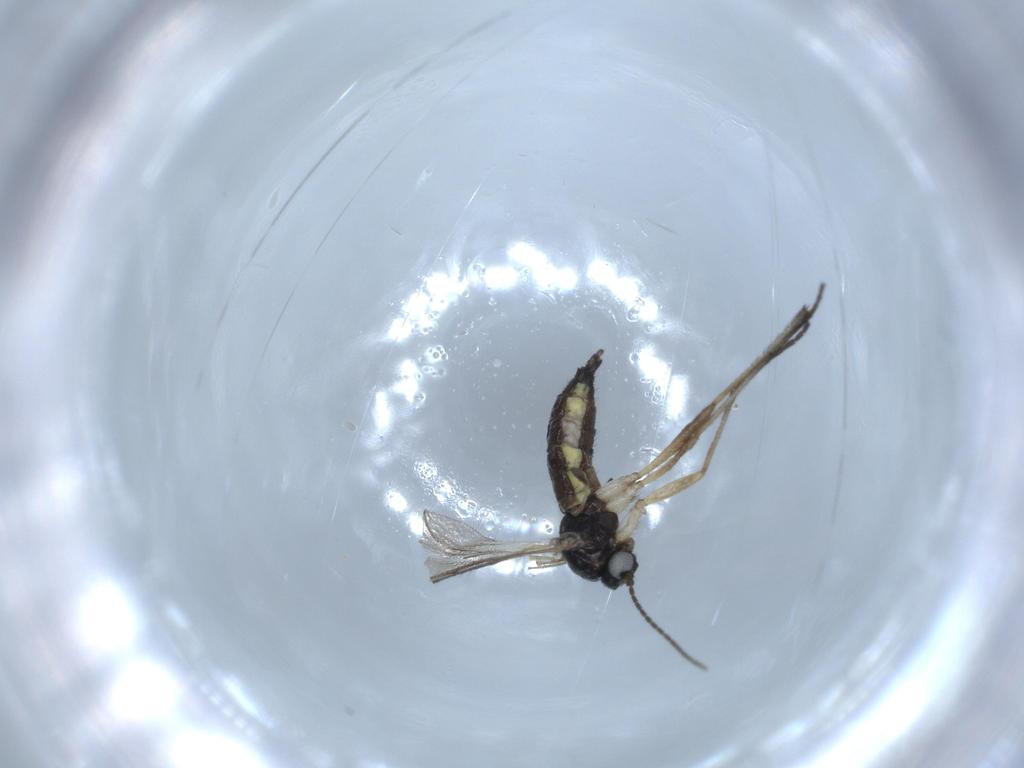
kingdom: Animalia
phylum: Arthropoda
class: Insecta
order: Diptera
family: Sciaridae
